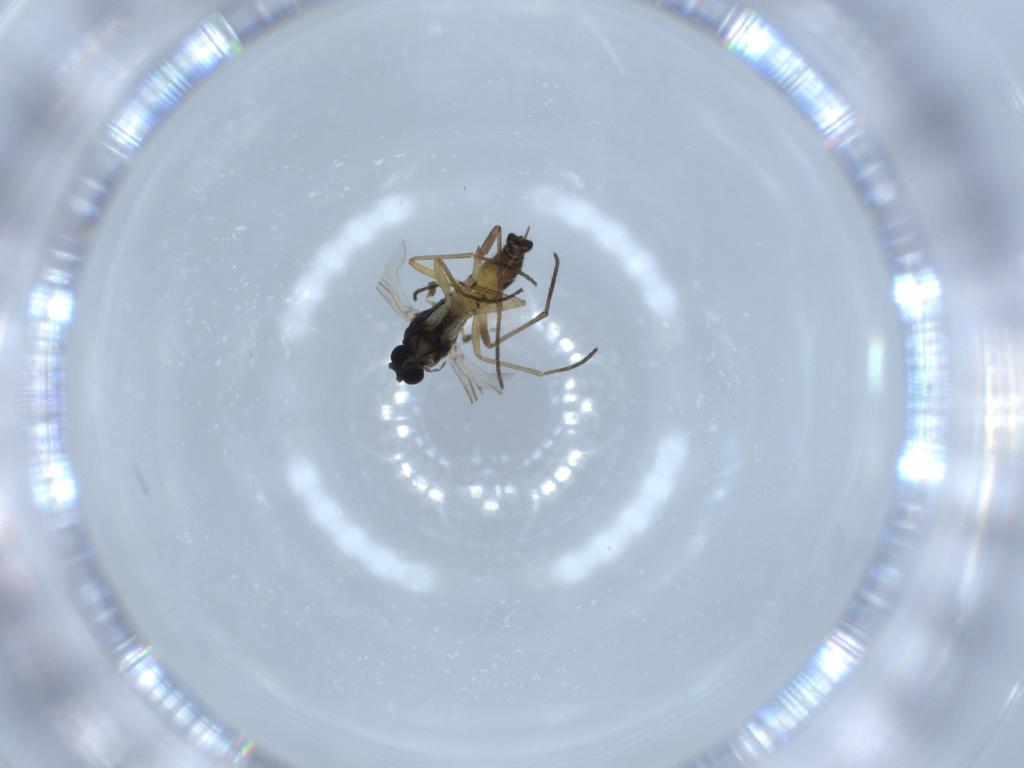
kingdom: Animalia
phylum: Arthropoda
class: Insecta
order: Diptera
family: Sciaridae
